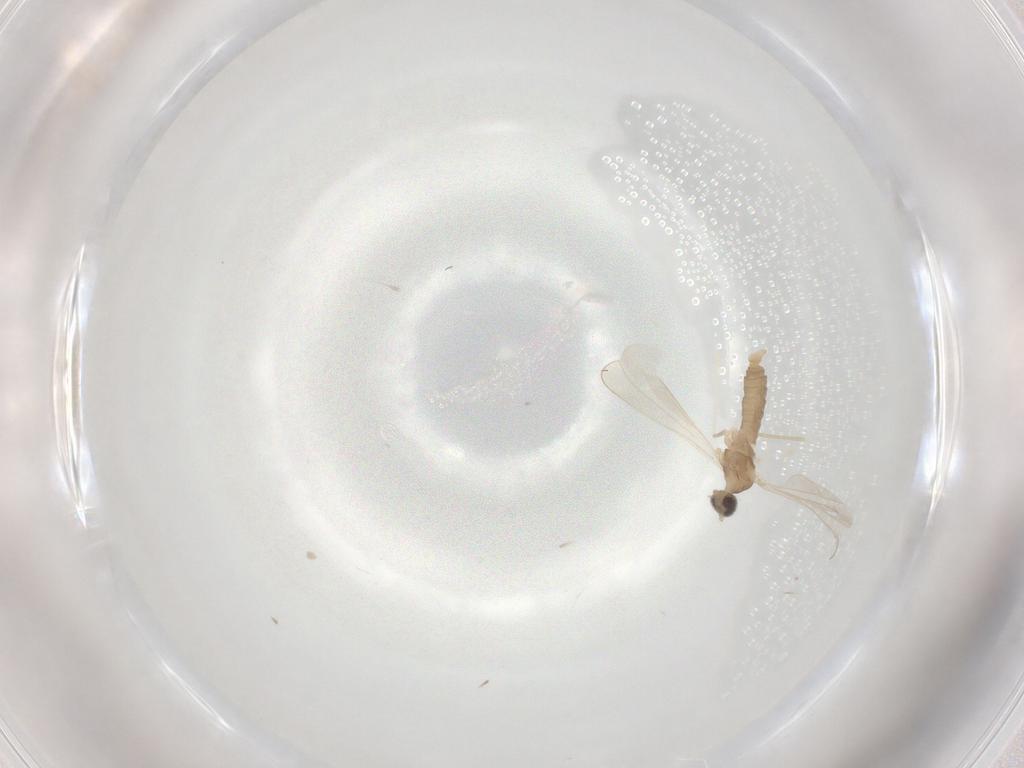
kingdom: Animalia
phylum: Arthropoda
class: Insecta
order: Diptera
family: Cecidomyiidae
